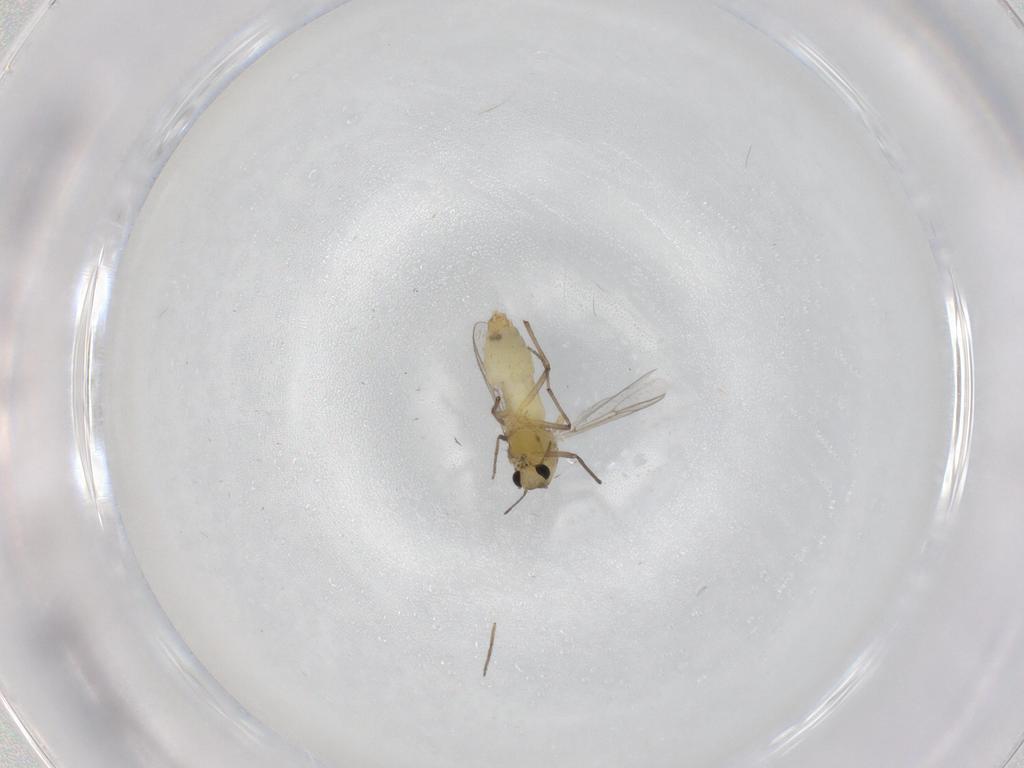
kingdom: Animalia
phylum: Arthropoda
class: Insecta
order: Diptera
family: Chironomidae
